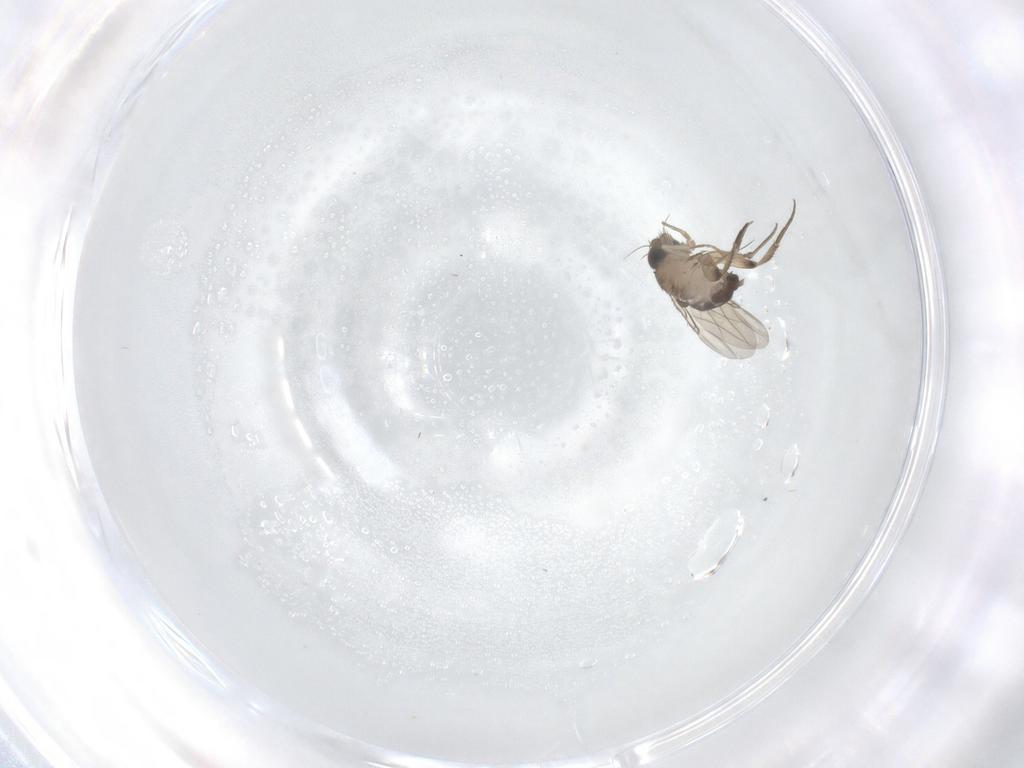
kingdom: Animalia
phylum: Arthropoda
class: Insecta
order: Diptera
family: Phoridae
